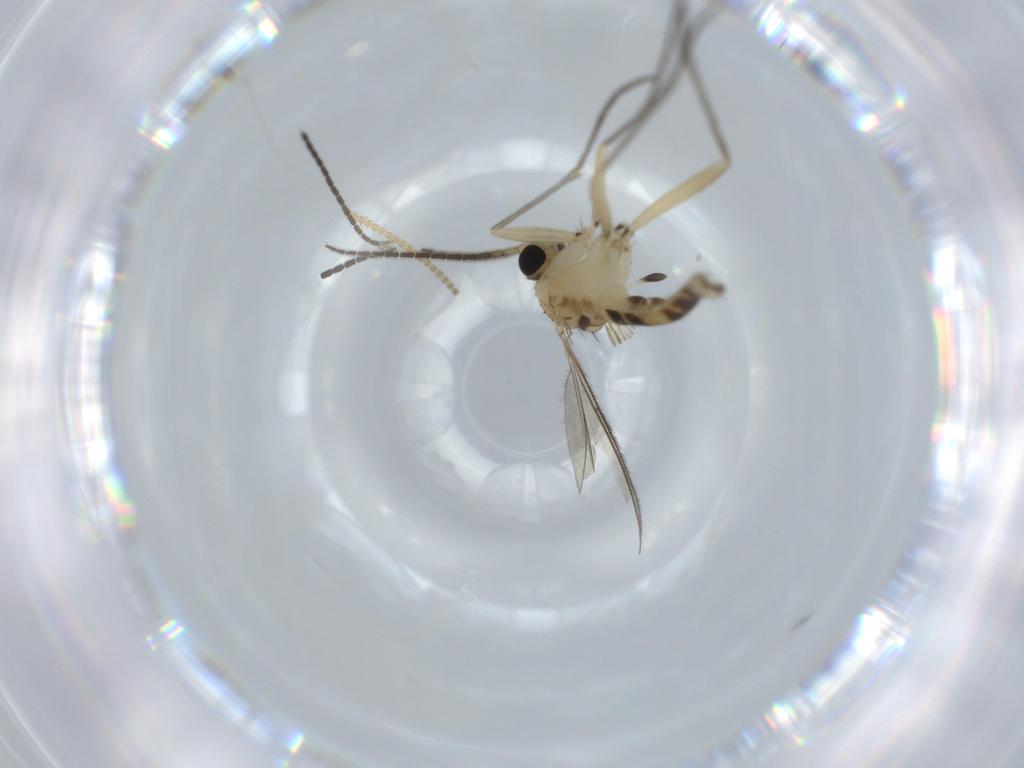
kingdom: Animalia
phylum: Arthropoda
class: Insecta
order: Diptera
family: Sciaridae
